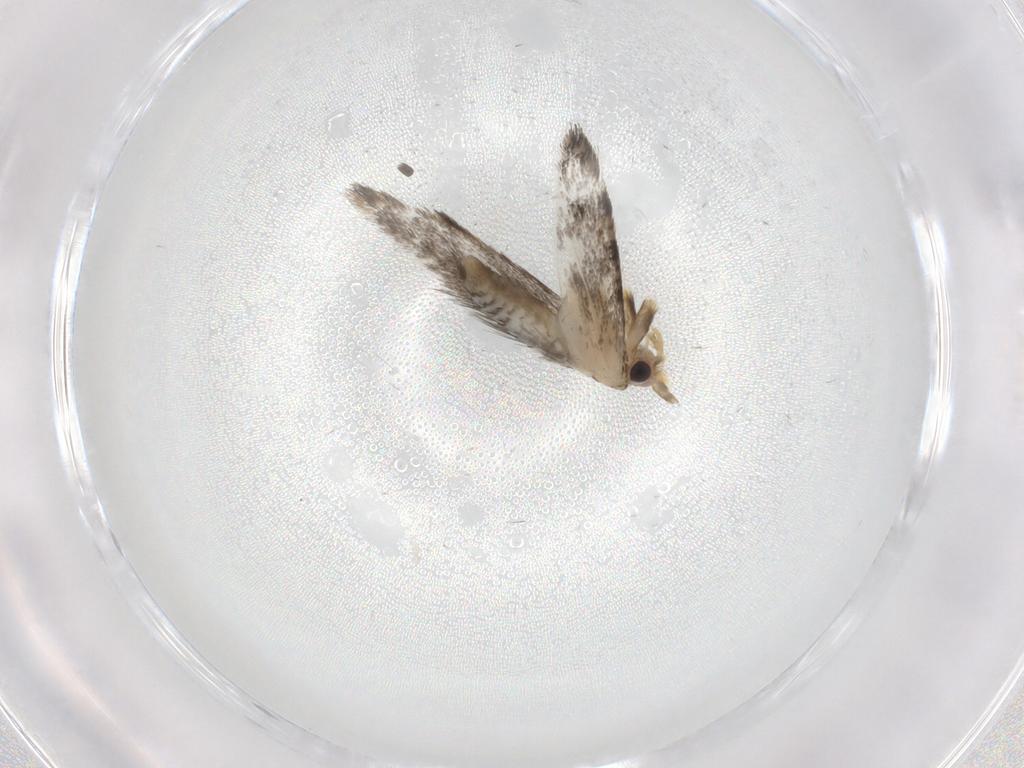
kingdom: Animalia
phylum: Arthropoda
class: Insecta
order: Lepidoptera
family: Tineidae
